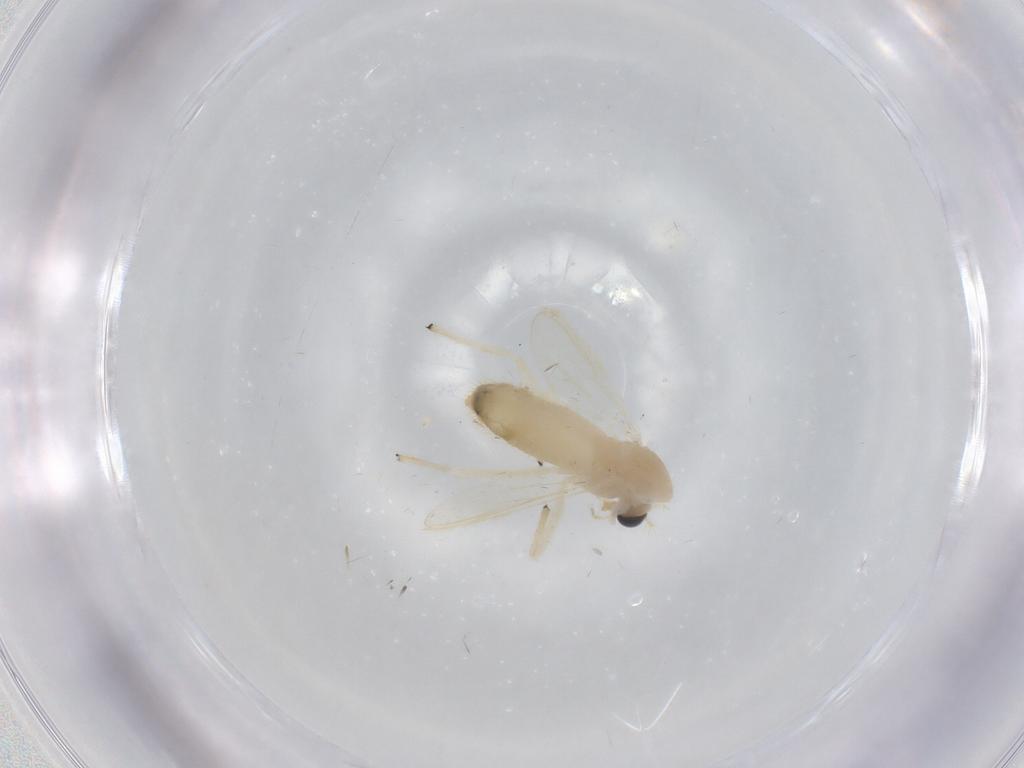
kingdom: Animalia
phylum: Arthropoda
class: Insecta
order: Diptera
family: Chironomidae
